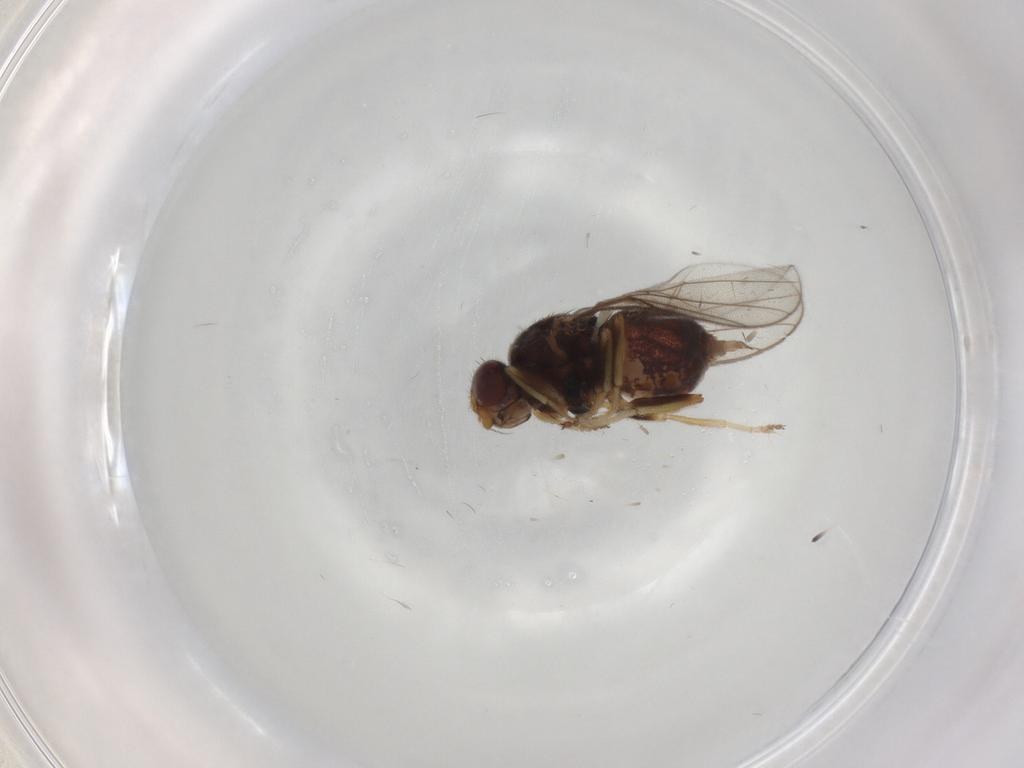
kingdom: Animalia
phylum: Arthropoda
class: Insecta
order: Diptera
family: Chloropidae
